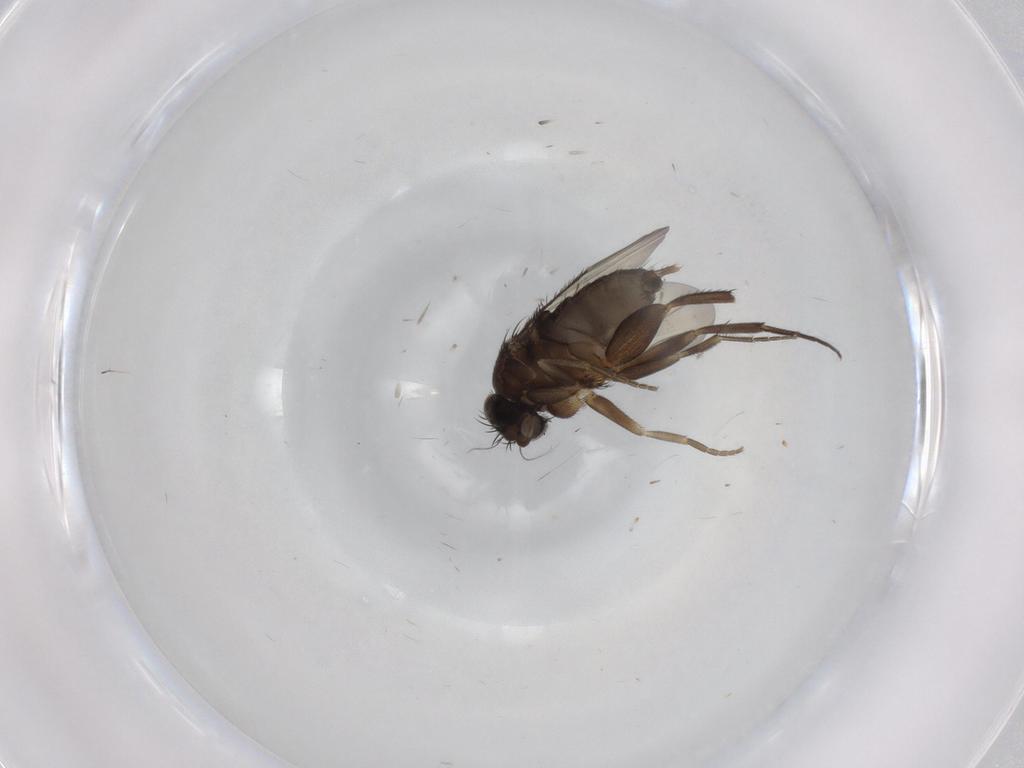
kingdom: Animalia
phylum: Arthropoda
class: Insecta
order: Diptera
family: Phoridae
